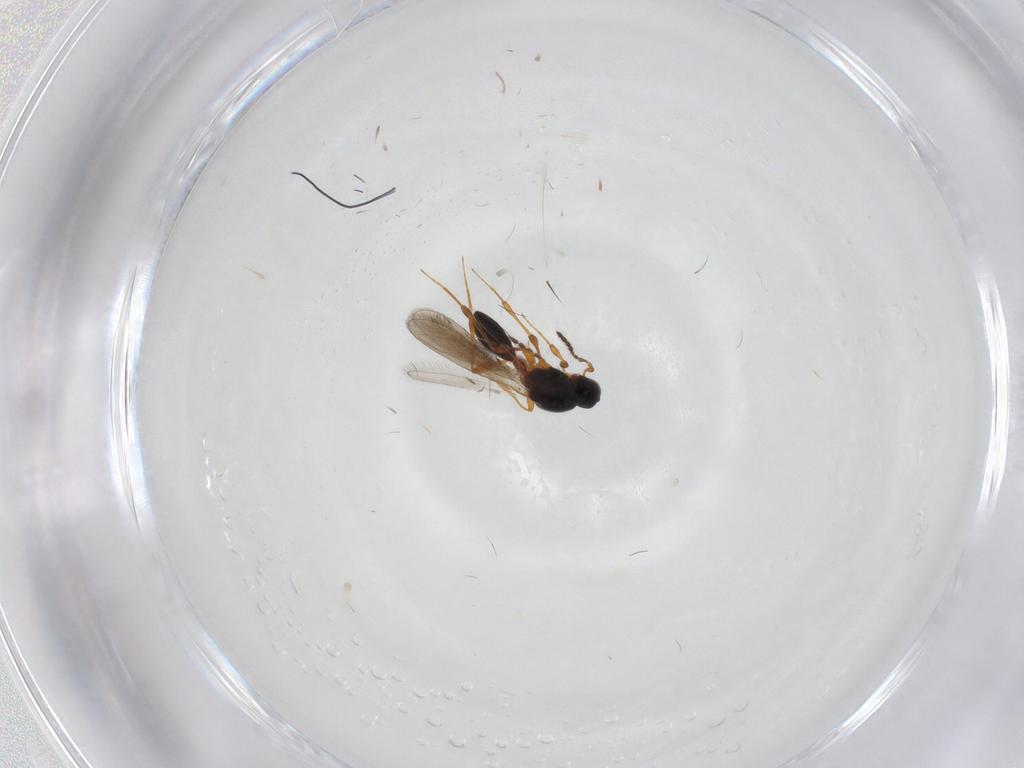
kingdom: Animalia
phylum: Arthropoda
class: Insecta
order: Hymenoptera
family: Platygastridae
